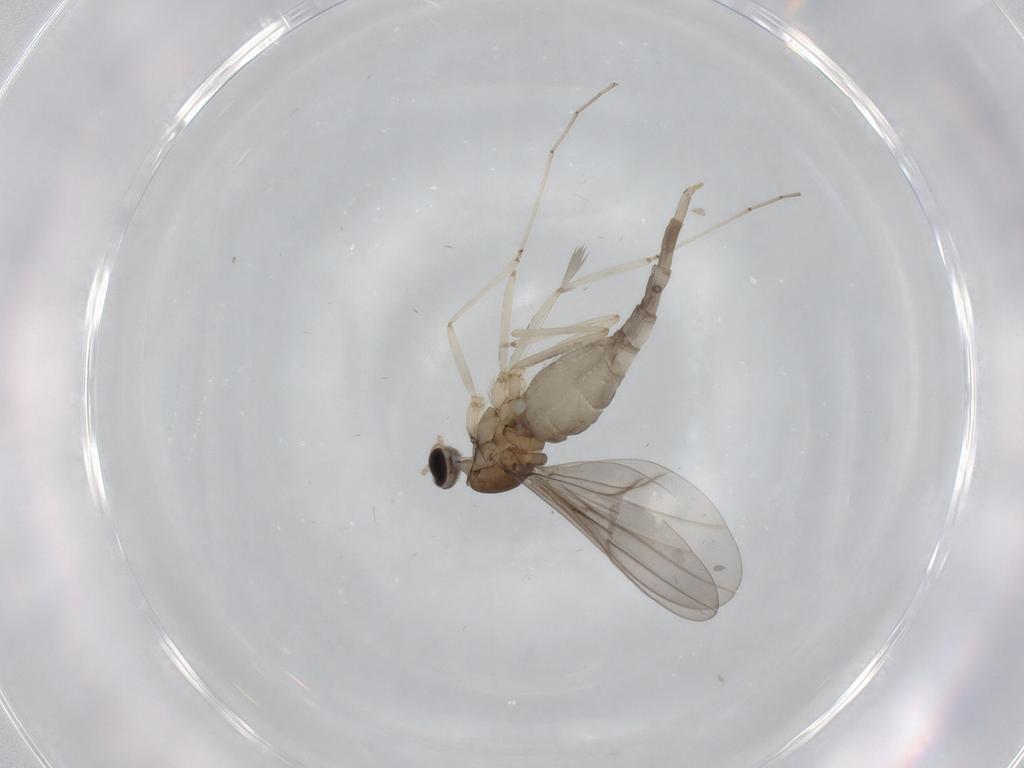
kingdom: Animalia
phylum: Arthropoda
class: Insecta
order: Diptera
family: Cecidomyiidae
